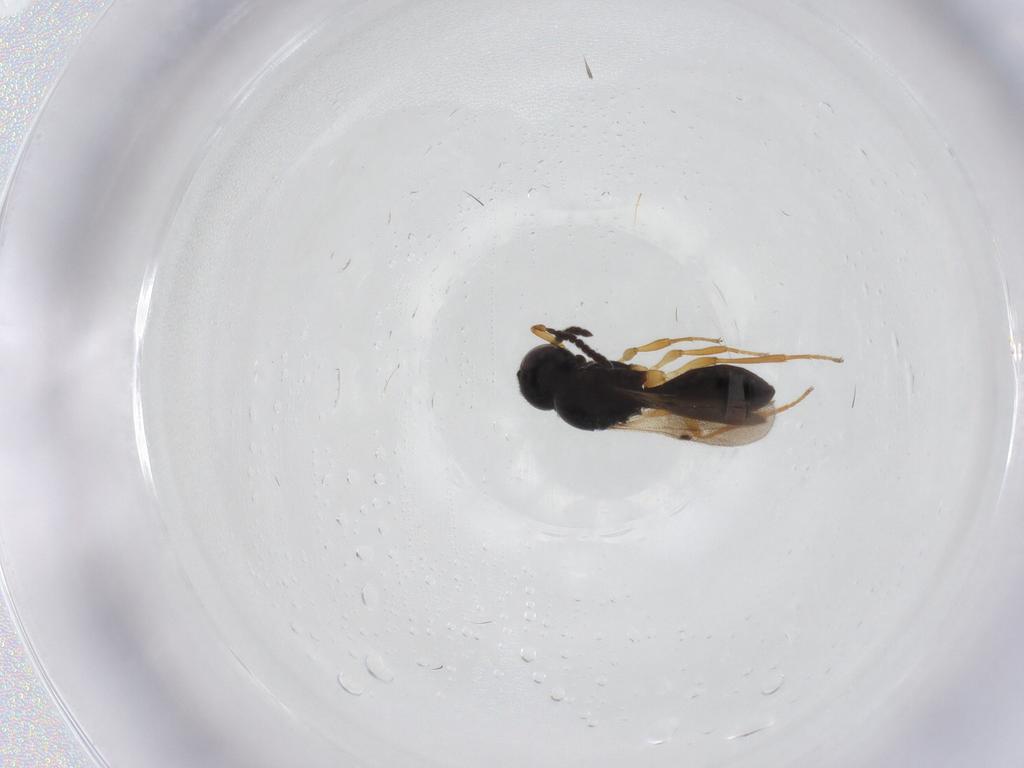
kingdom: Animalia
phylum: Arthropoda
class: Insecta
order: Hymenoptera
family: Scelionidae
